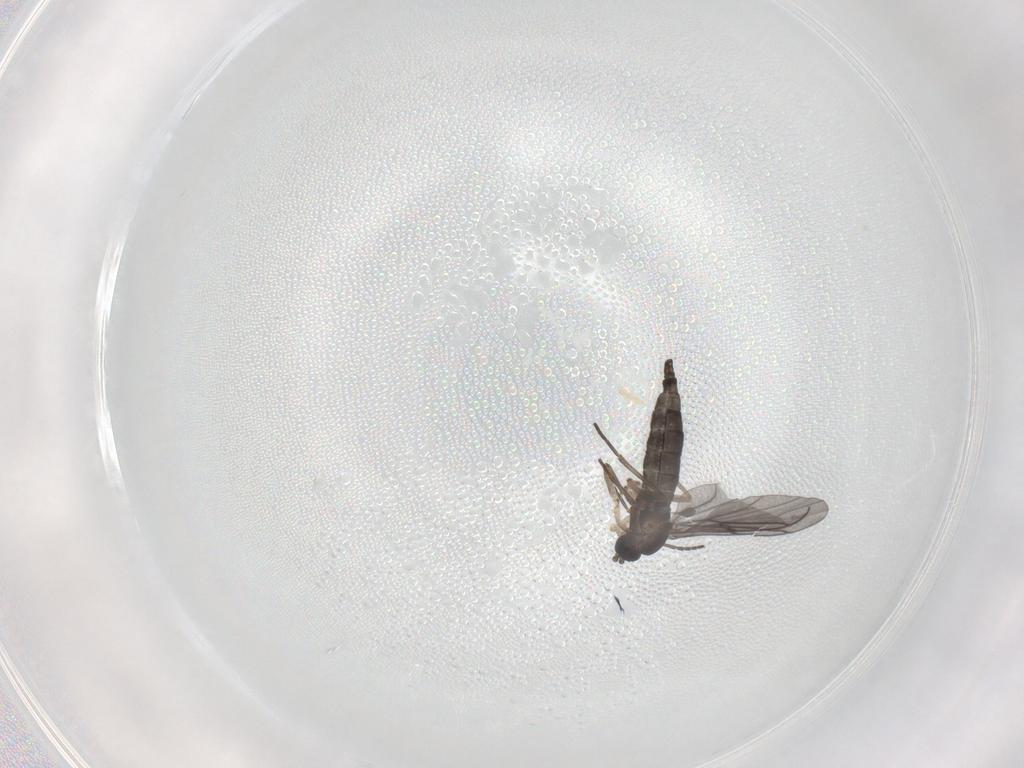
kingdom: Animalia
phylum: Arthropoda
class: Insecta
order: Diptera
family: Sciaridae
